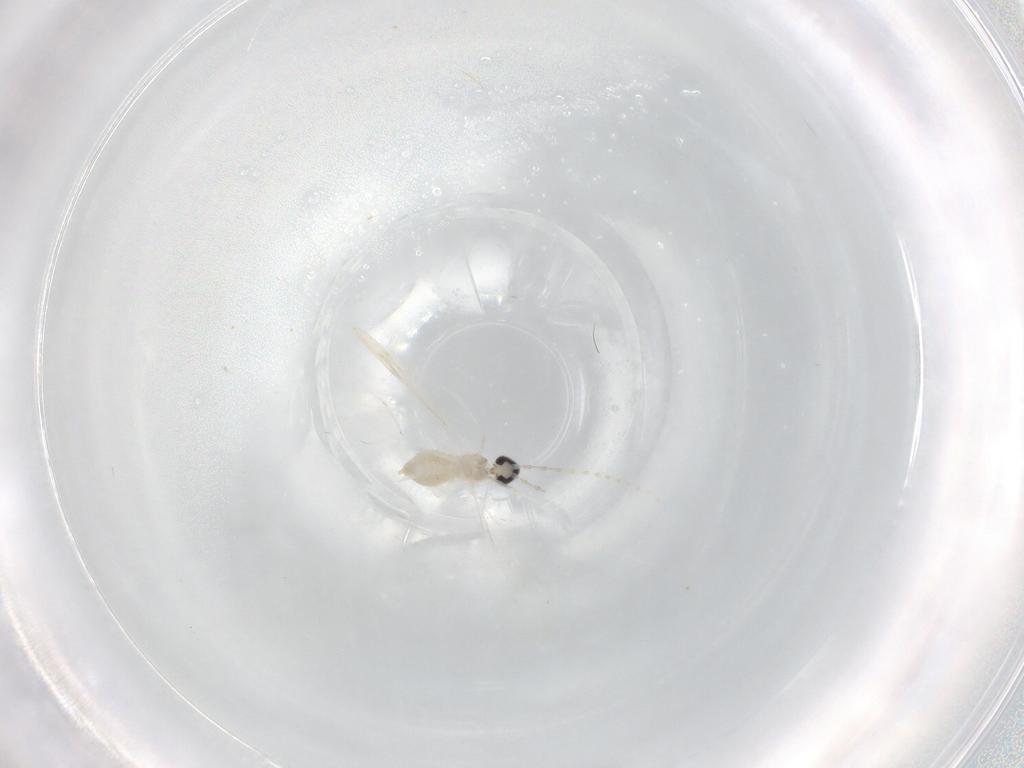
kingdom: Animalia
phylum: Arthropoda
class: Insecta
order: Diptera
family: Cecidomyiidae
